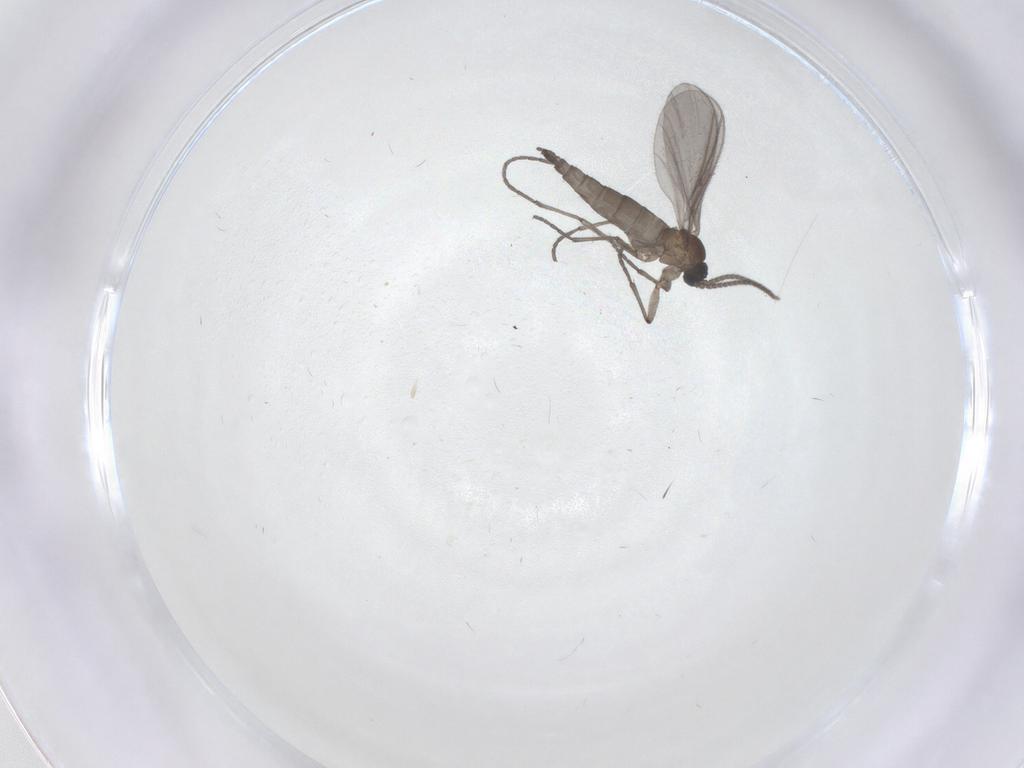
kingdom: Animalia
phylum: Arthropoda
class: Insecta
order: Diptera
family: Sciaridae
